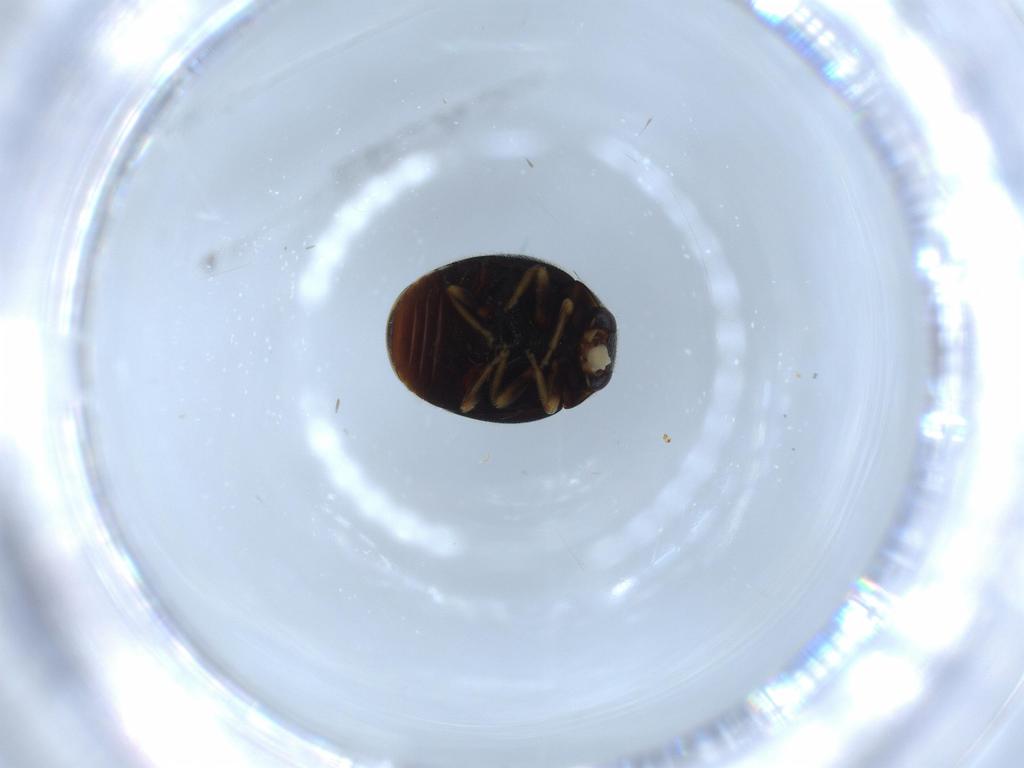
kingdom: Animalia
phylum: Arthropoda
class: Insecta
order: Coleoptera
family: Coccinellidae
